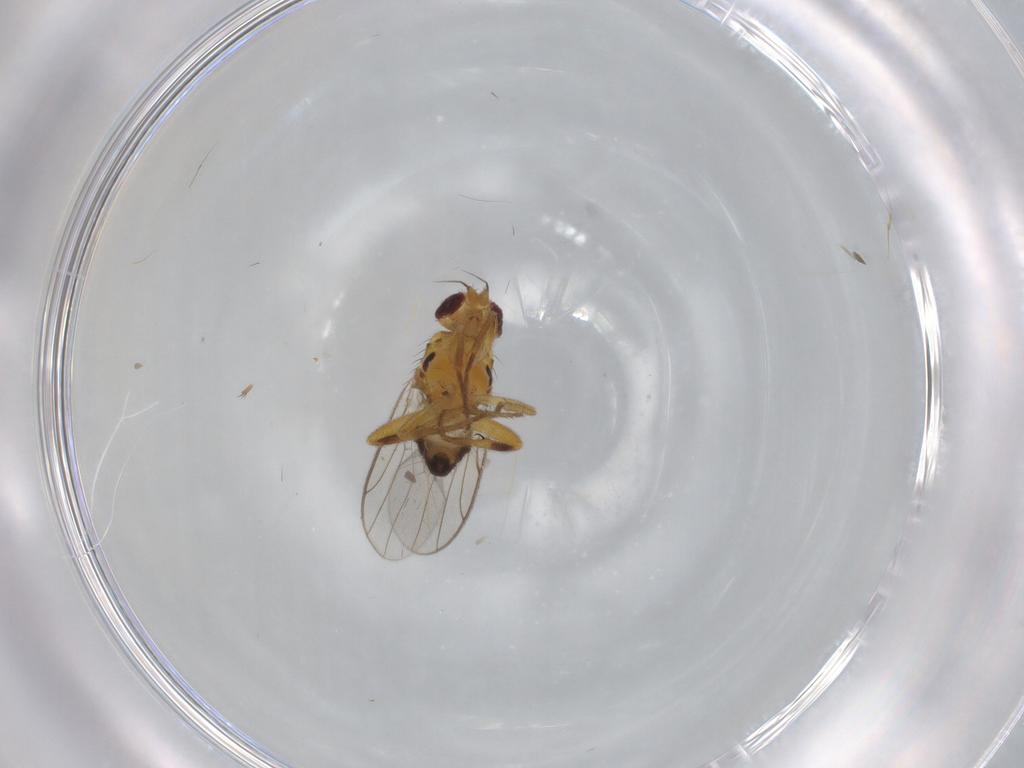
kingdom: Animalia
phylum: Arthropoda
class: Insecta
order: Diptera
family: Chloropidae
